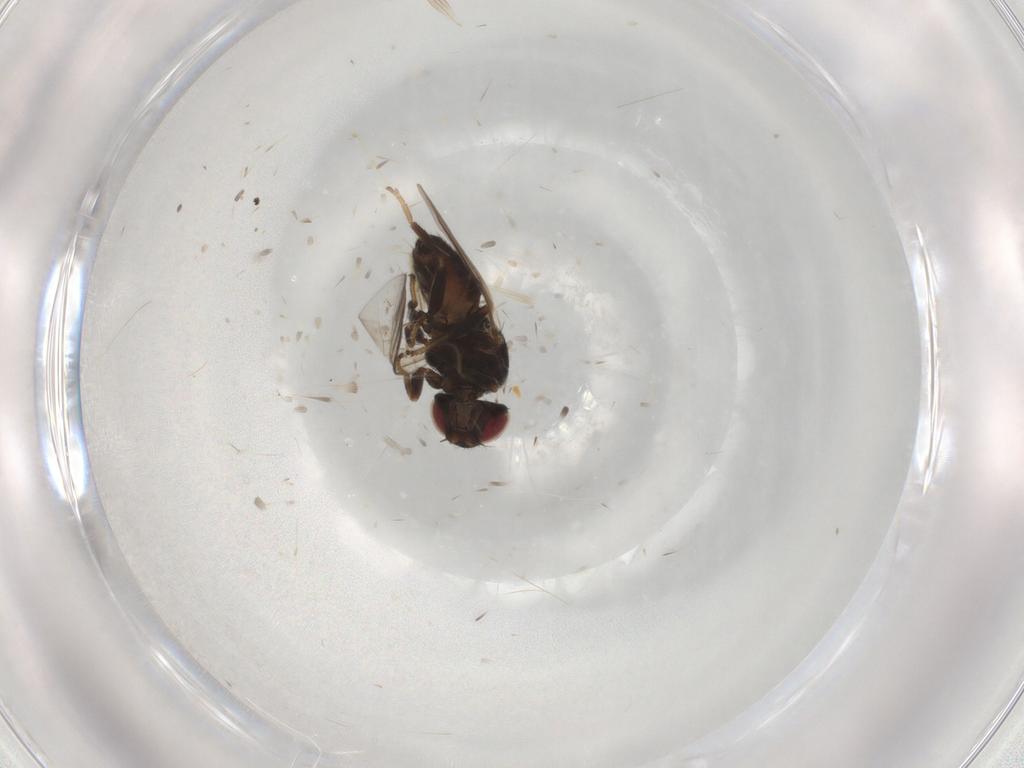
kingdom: Animalia
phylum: Arthropoda
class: Insecta
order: Diptera
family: Chloropidae
